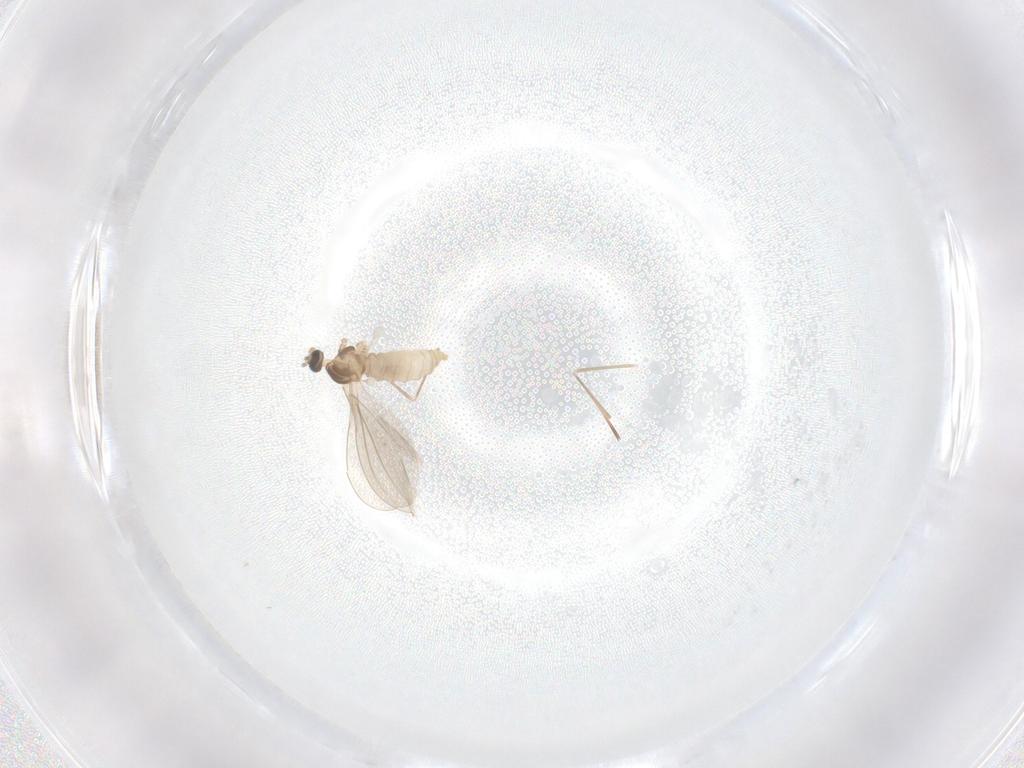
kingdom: Animalia
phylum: Arthropoda
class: Insecta
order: Diptera
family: Cecidomyiidae
